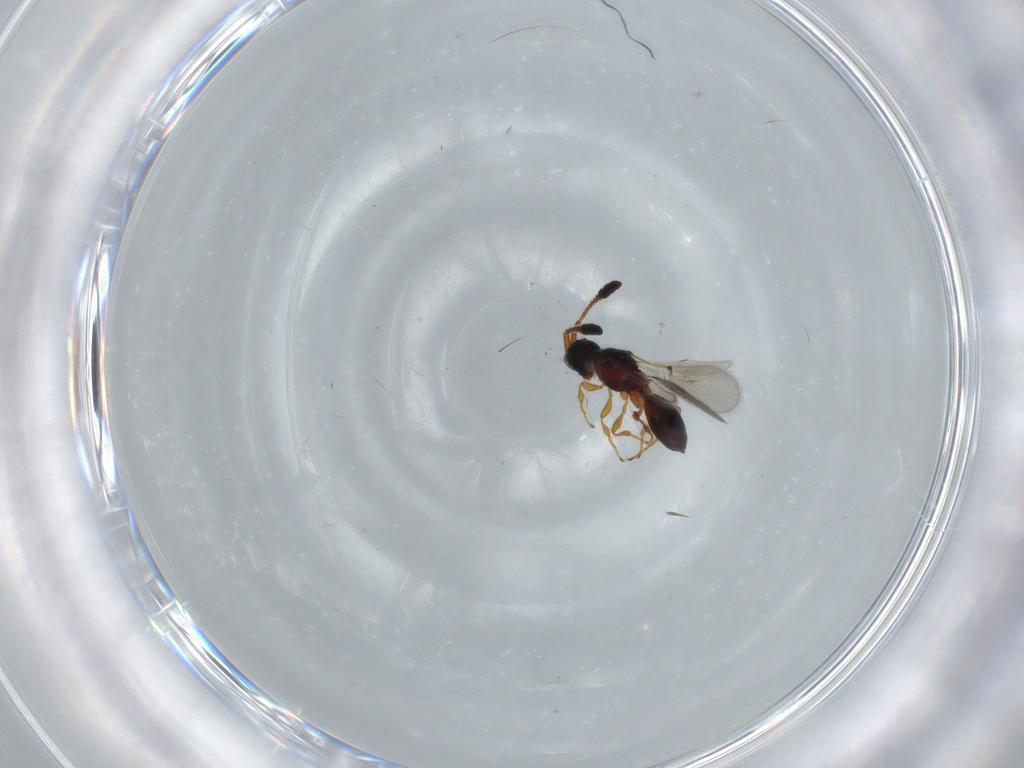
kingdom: Animalia
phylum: Arthropoda
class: Insecta
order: Hymenoptera
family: Diapriidae
